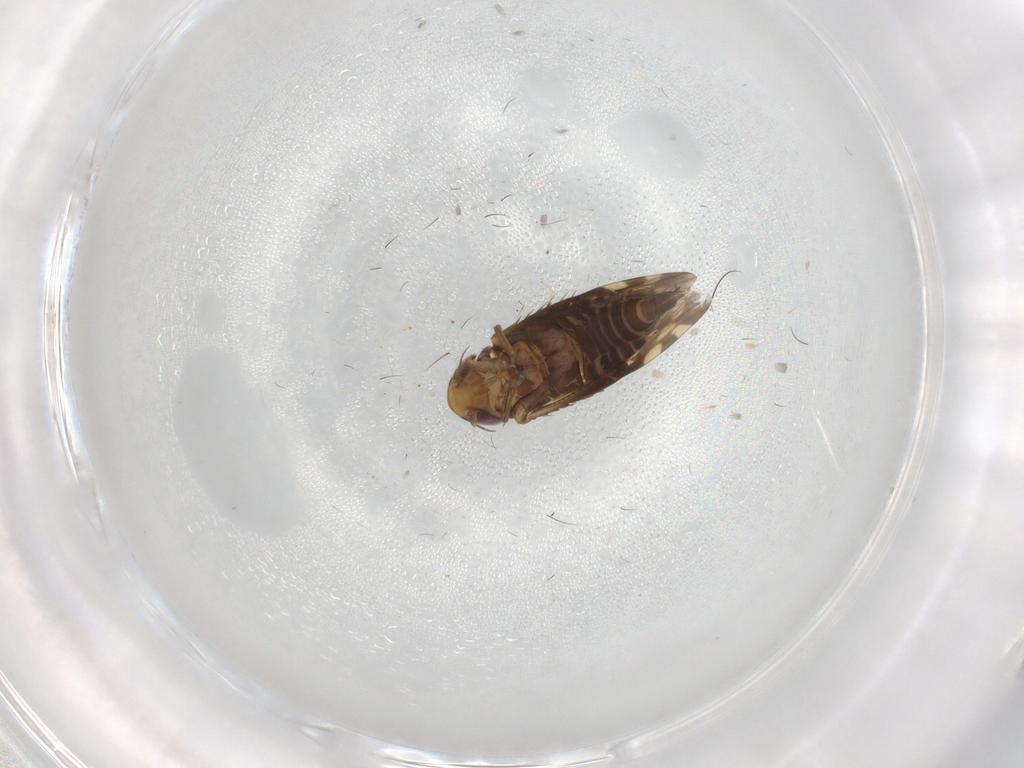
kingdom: Animalia
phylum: Arthropoda
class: Insecta
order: Hemiptera
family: Cicadellidae
